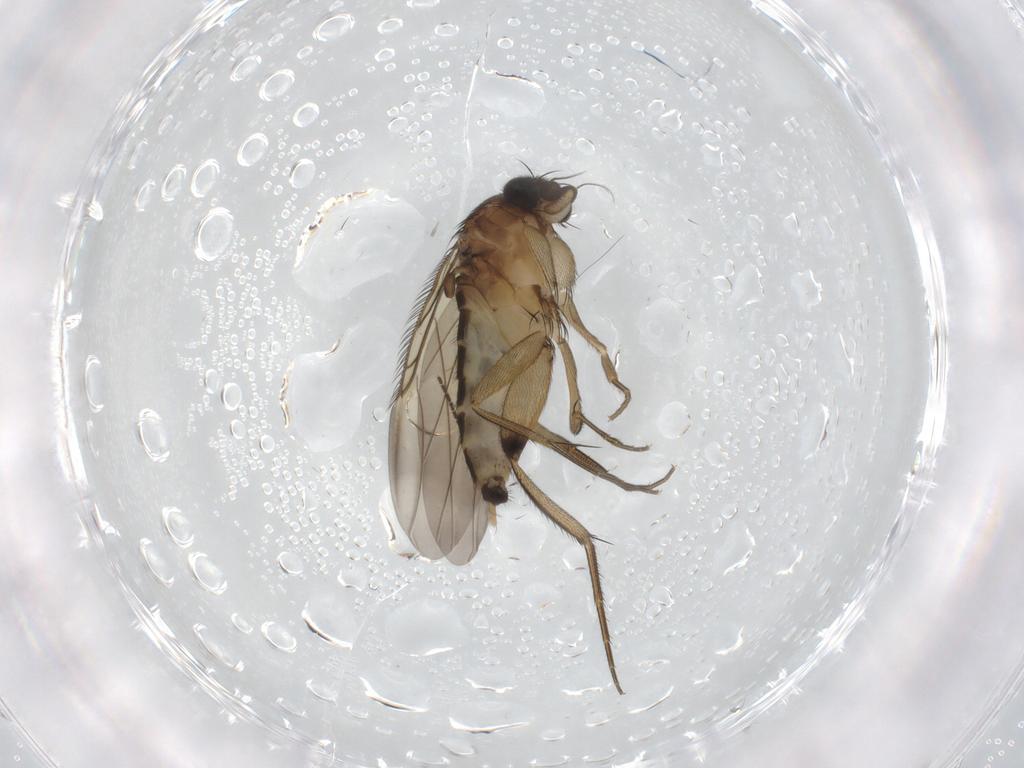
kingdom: Animalia
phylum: Arthropoda
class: Insecta
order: Diptera
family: Phoridae
